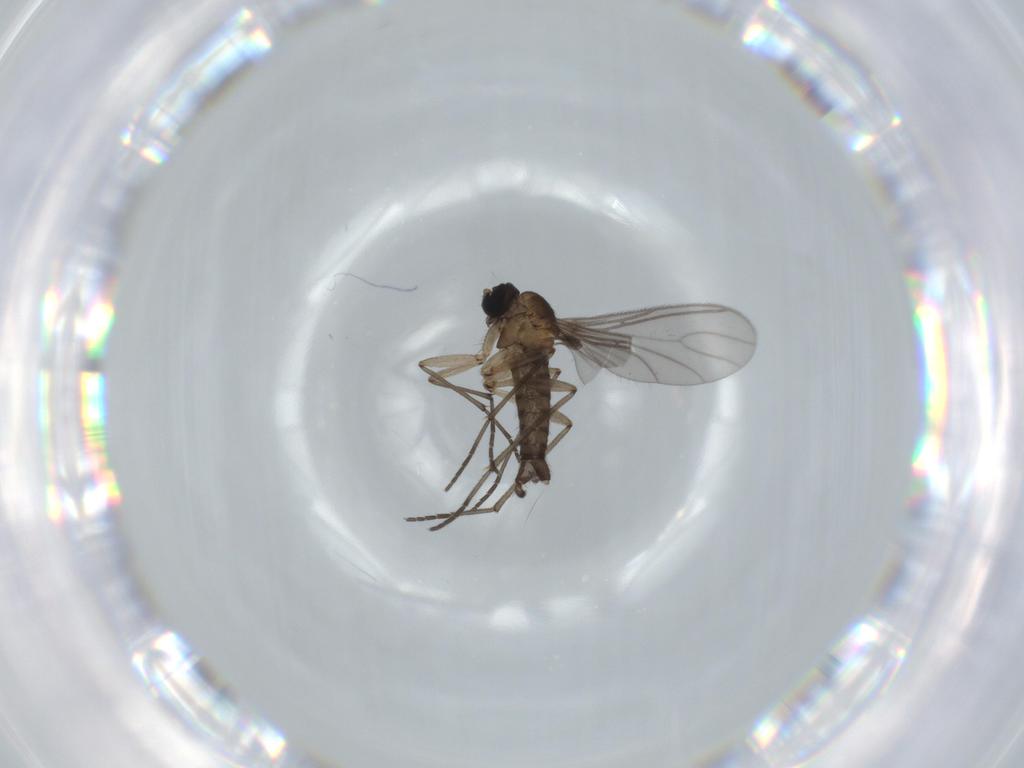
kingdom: Animalia
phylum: Arthropoda
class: Insecta
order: Diptera
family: Sciaridae
